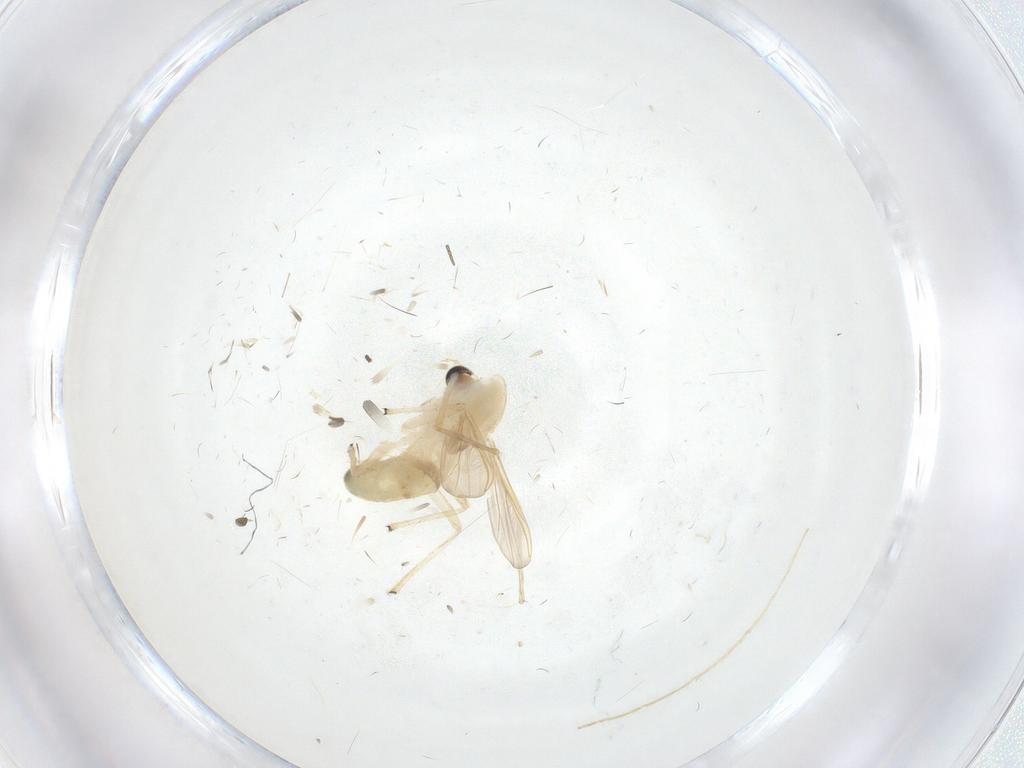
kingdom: Animalia
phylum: Arthropoda
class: Insecta
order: Diptera
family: Chironomidae
